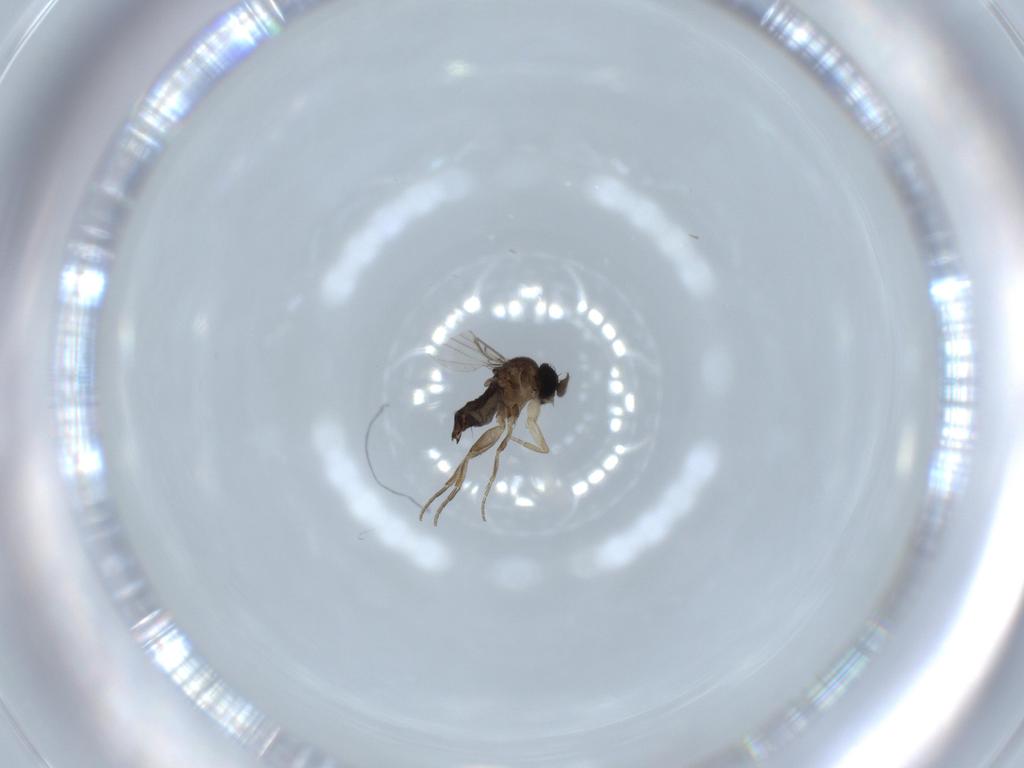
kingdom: Animalia
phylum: Arthropoda
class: Insecta
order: Diptera
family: Phoridae
